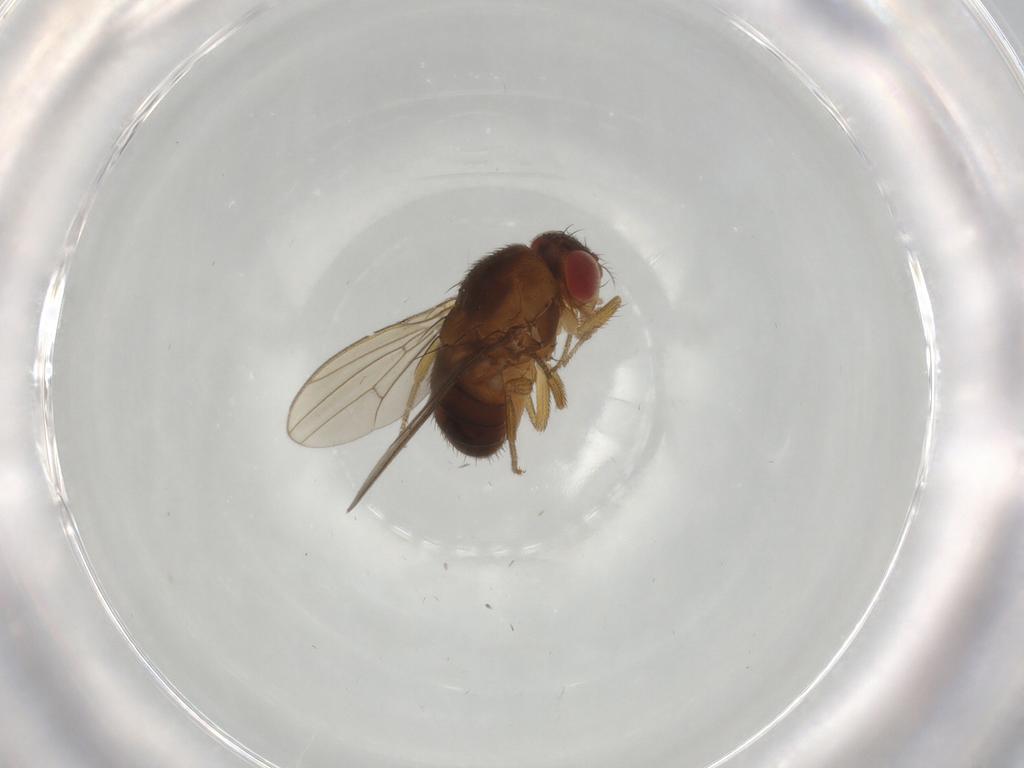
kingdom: Animalia
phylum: Arthropoda
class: Insecta
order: Diptera
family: Drosophilidae
